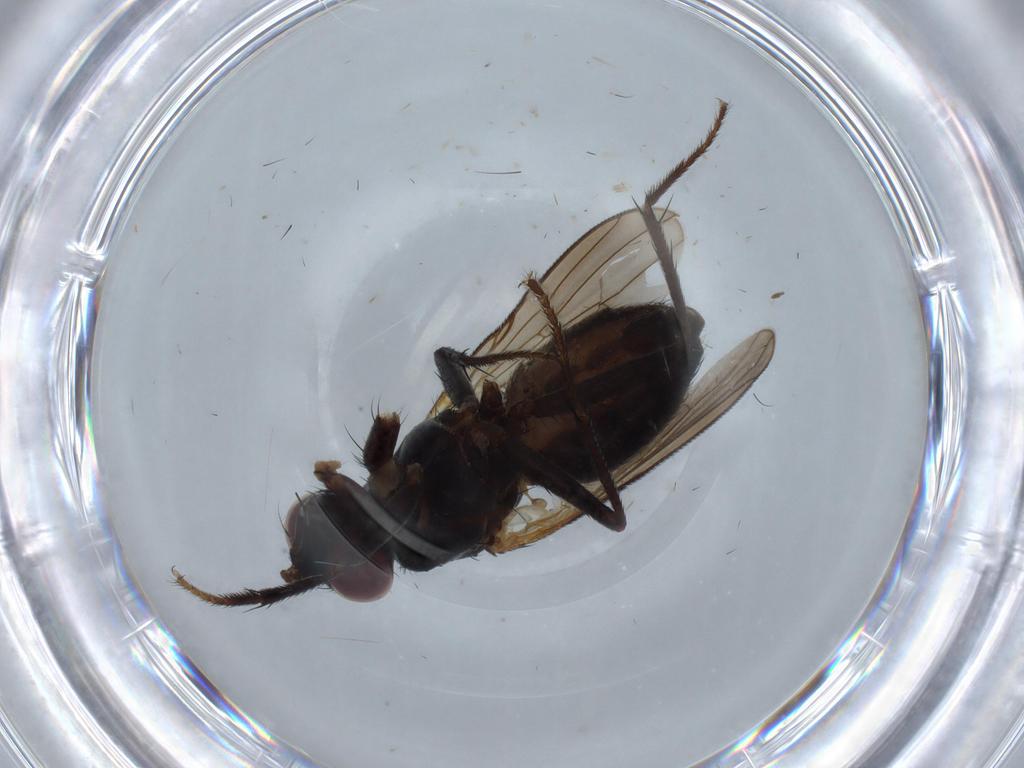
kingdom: Animalia
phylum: Arthropoda
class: Insecta
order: Diptera
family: Muscidae
